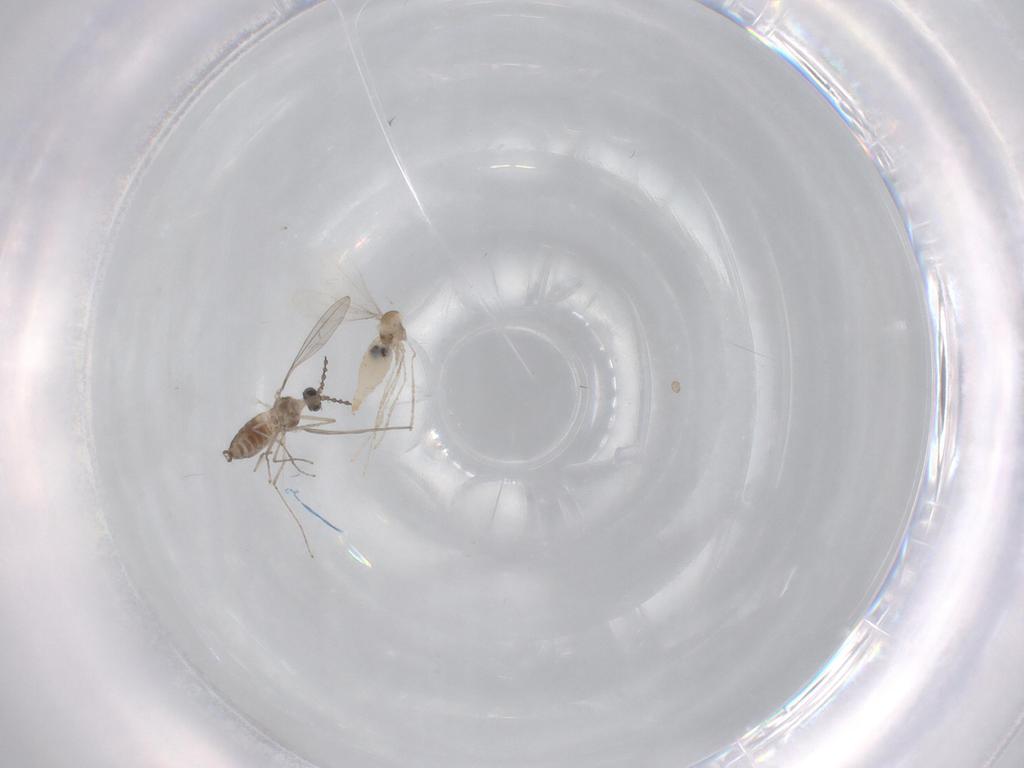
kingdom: Animalia
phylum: Arthropoda
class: Insecta
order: Diptera
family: Cecidomyiidae
